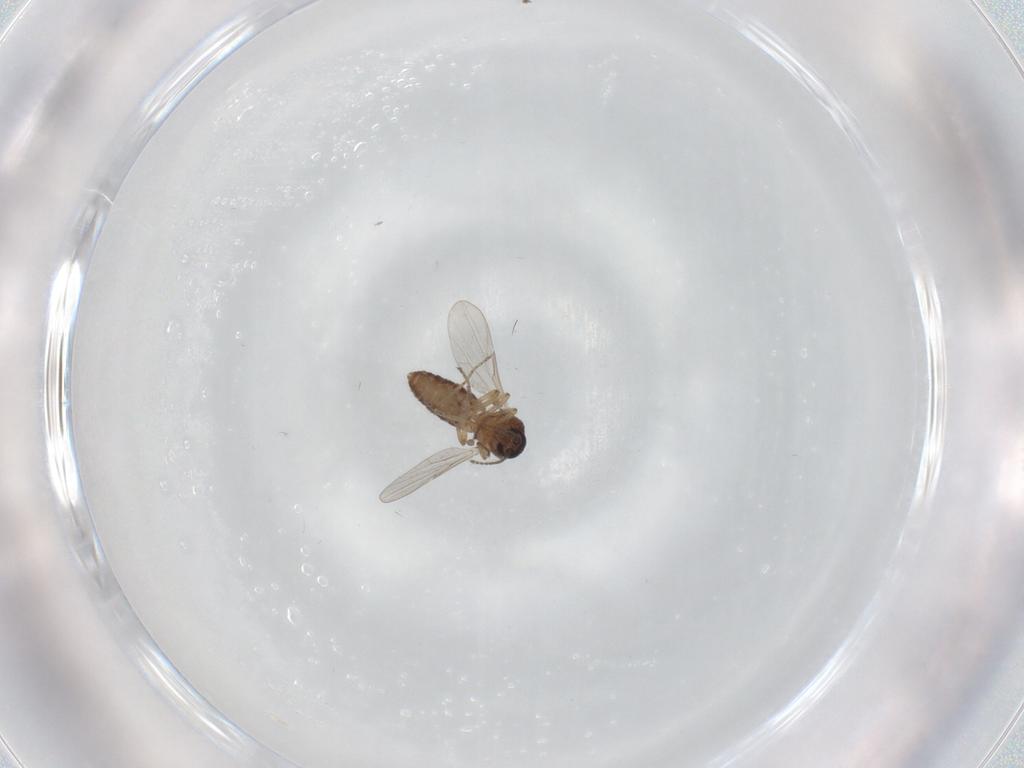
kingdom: Animalia
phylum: Arthropoda
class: Insecta
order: Diptera
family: Ceratopogonidae
